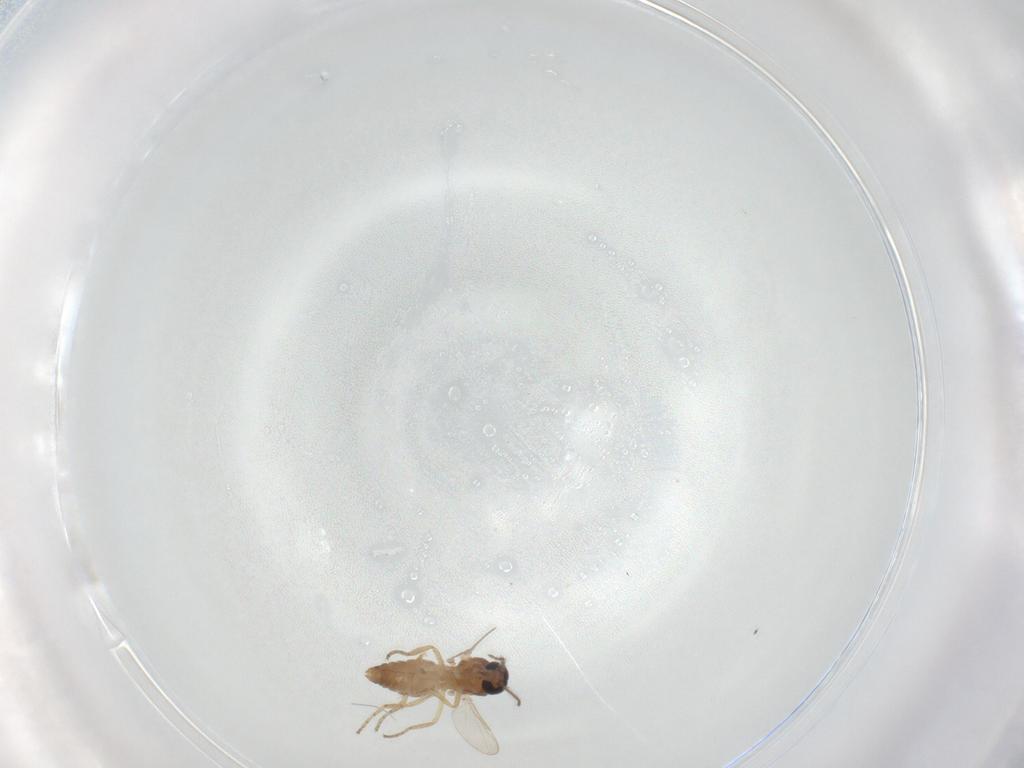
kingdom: Animalia
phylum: Arthropoda
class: Insecta
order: Diptera
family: Ceratopogonidae
